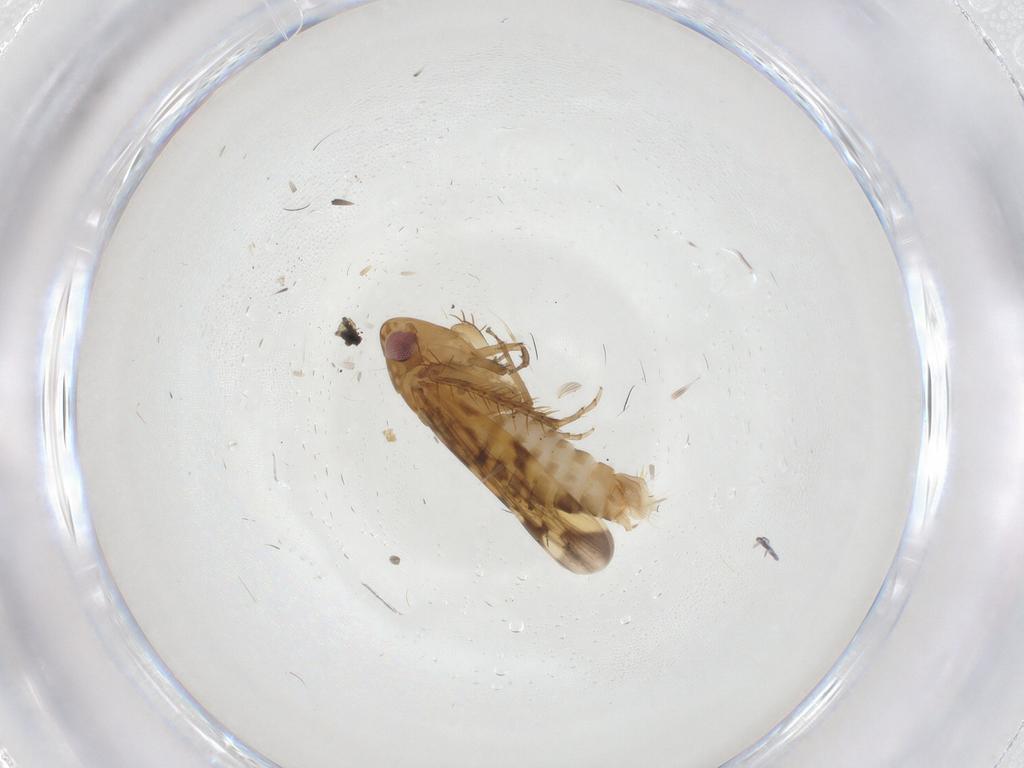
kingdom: Animalia
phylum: Arthropoda
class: Insecta
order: Hemiptera
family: Cicadellidae
